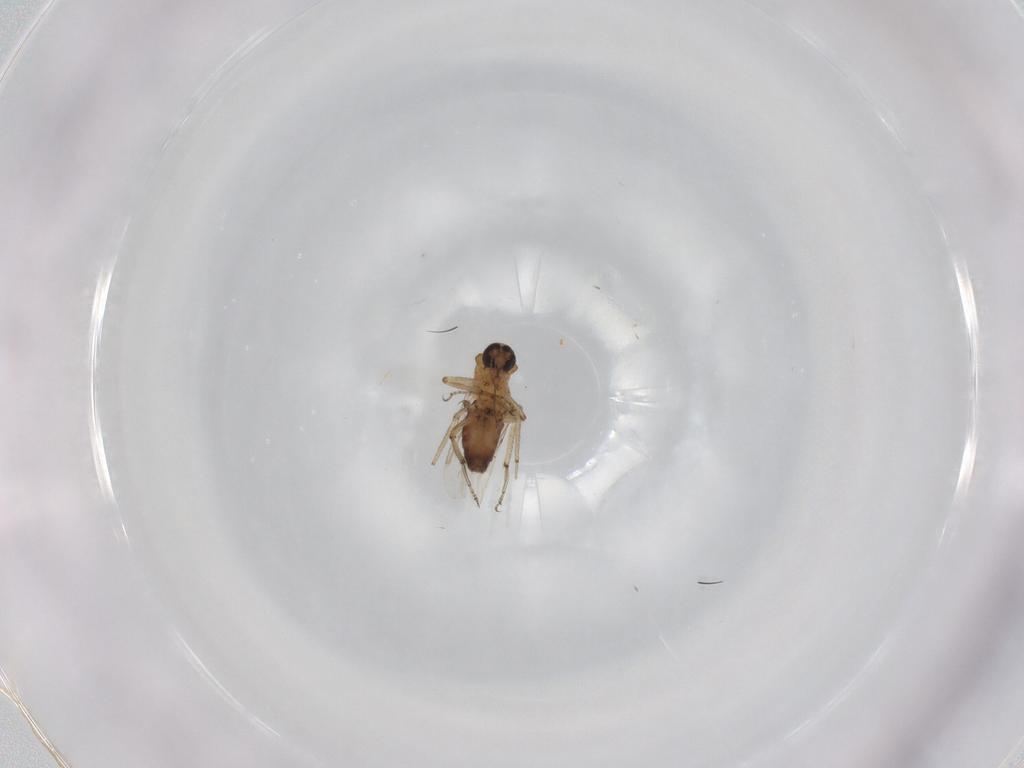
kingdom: Animalia
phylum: Arthropoda
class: Insecta
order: Diptera
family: Ceratopogonidae
